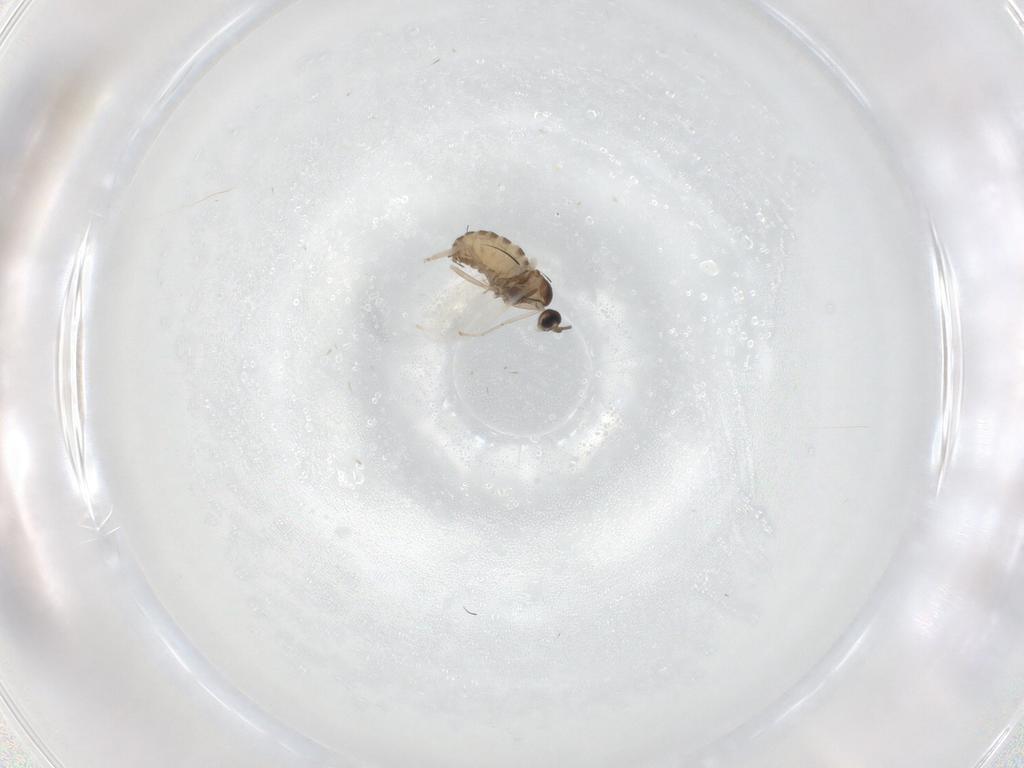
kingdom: Animalia
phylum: Arthropoda
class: Insecta
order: Diptera
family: Cecidomyiidae
